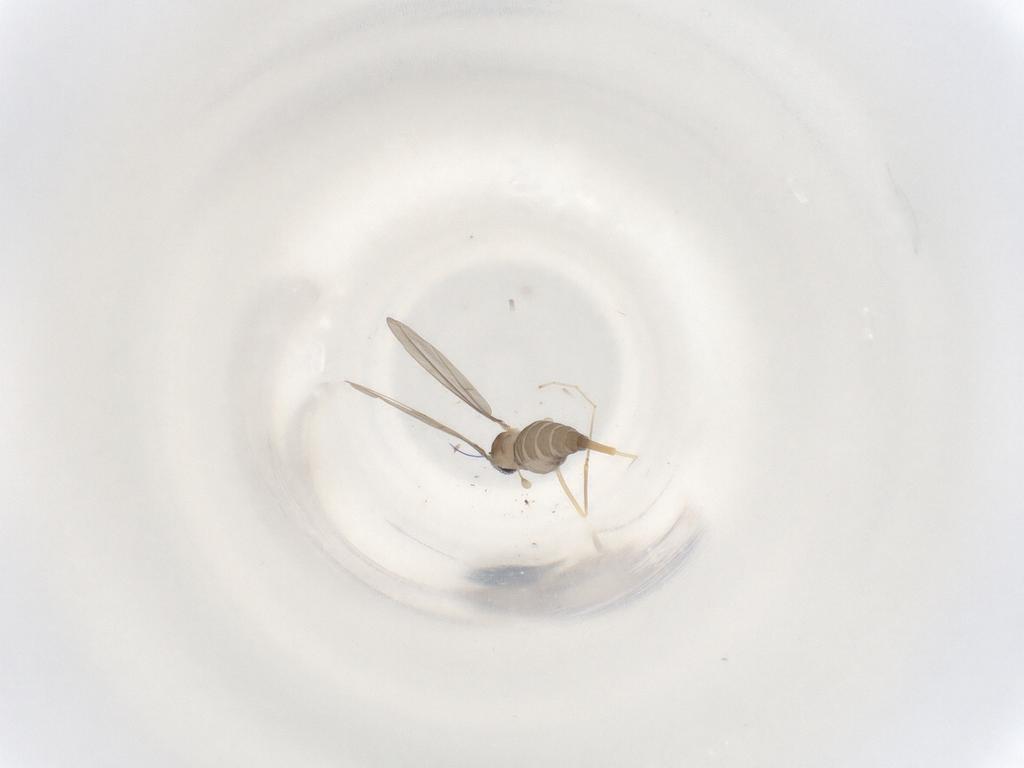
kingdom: Animalia
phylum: Arthropoda
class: Insecta
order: Diptera
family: Cecidomyiidae
